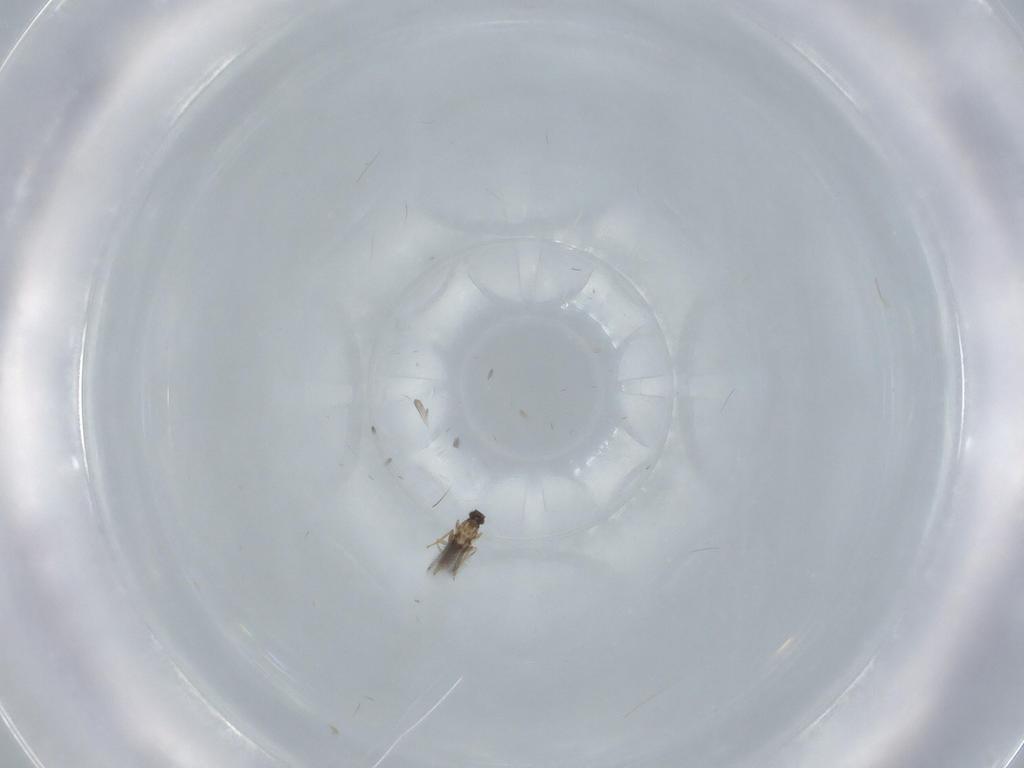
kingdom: Animalia
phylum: Arthropoda
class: Insecta
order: Hymenoptera
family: Mymaridae
